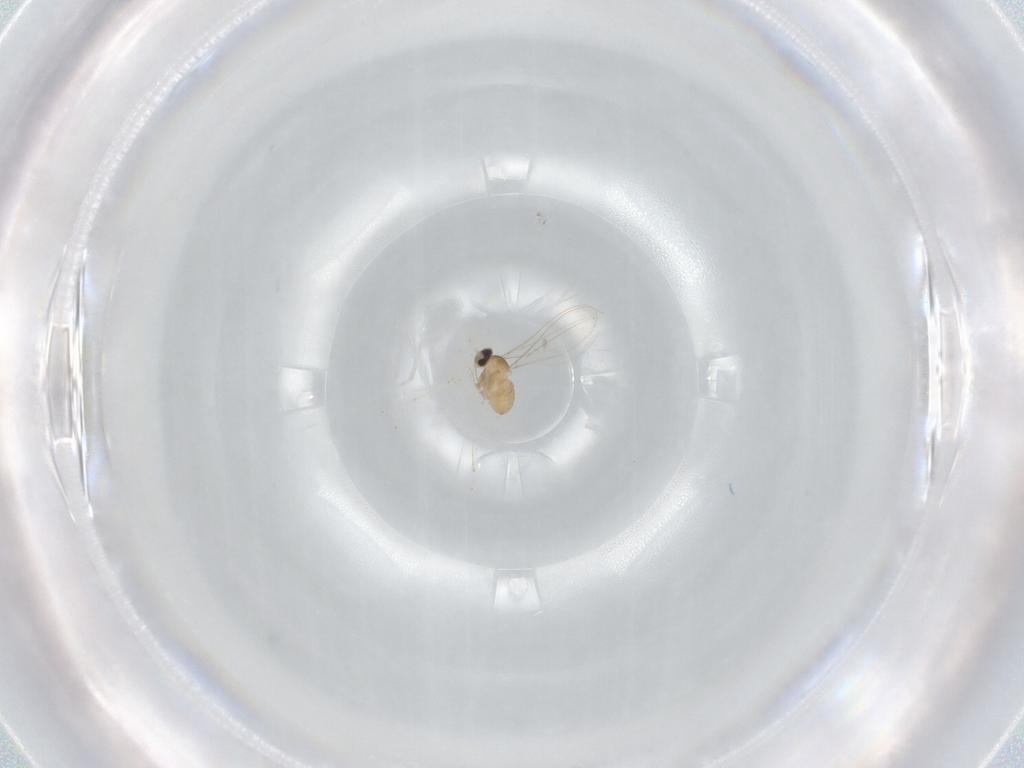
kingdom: Animalia
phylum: Arthropoda
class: Insecta
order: Diptera
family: Cecidomyiidae
